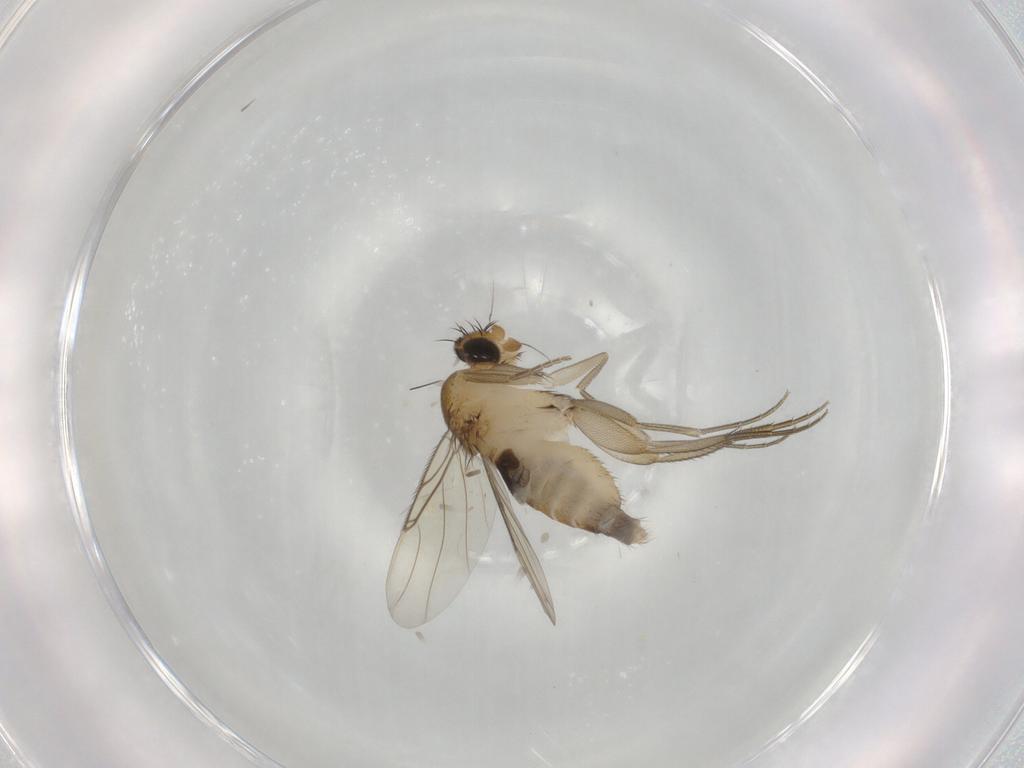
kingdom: Animalia
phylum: Arthropoda
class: Insecta
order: Diptera
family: Phoridae
